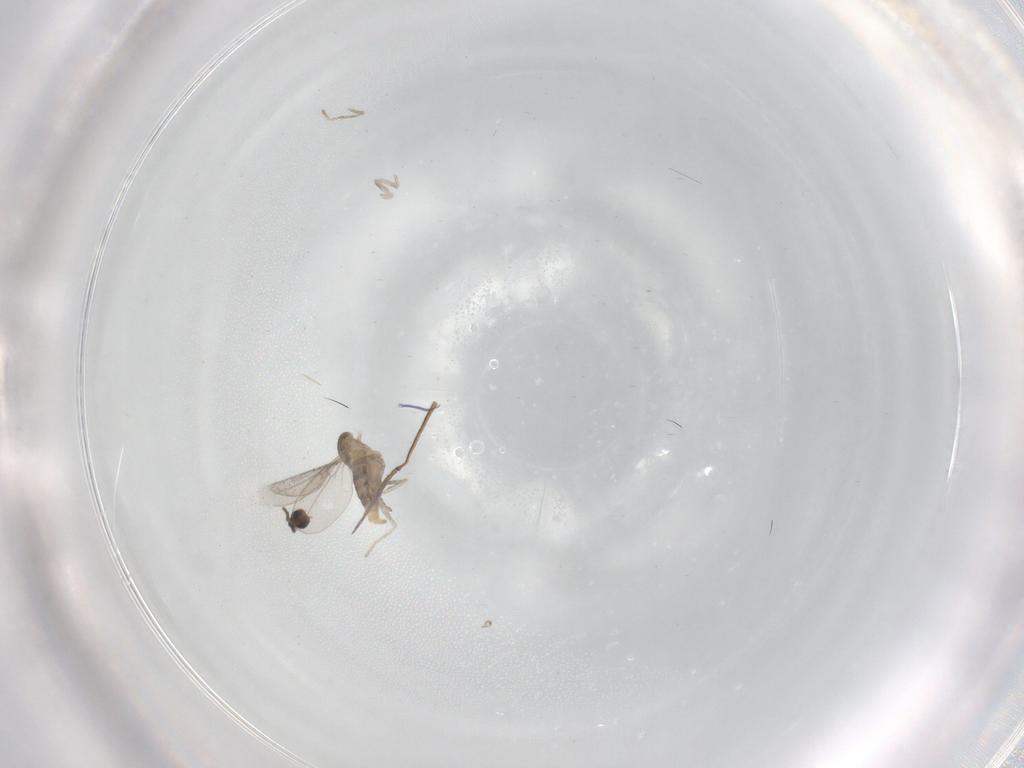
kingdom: Animalia
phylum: Arthropoda
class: Insecta
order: Diptera
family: Cecidomyiidae
